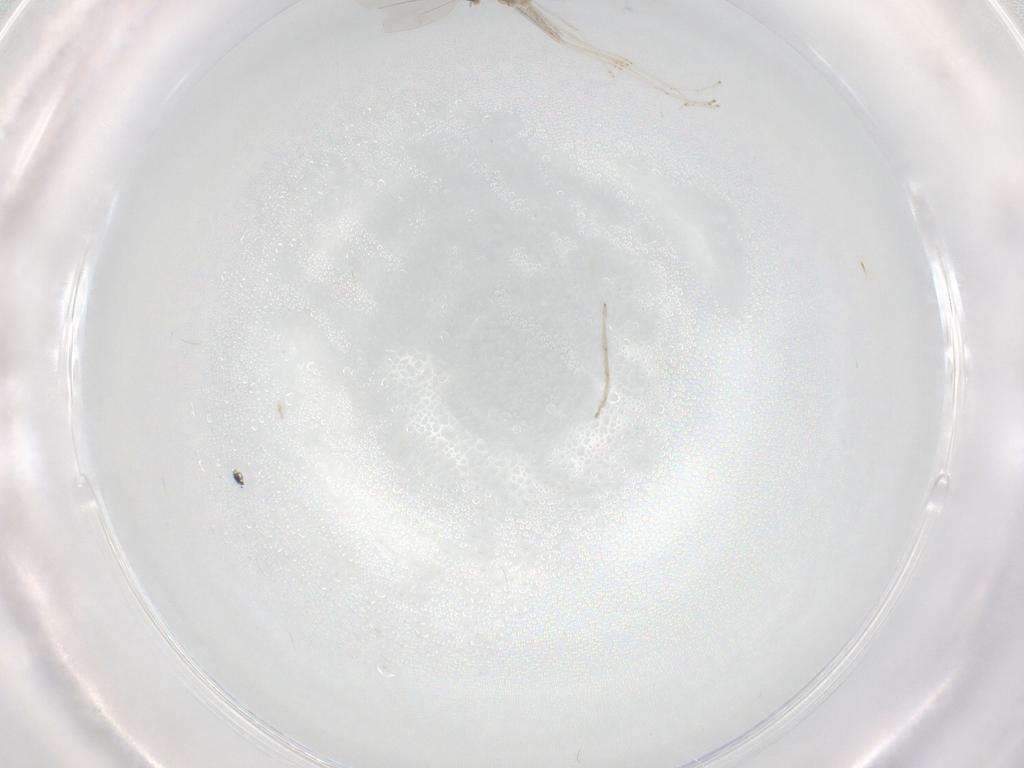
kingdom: Animalia
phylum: Arthropoda
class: Insecta
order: Diptera
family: Cecidomyiidae
